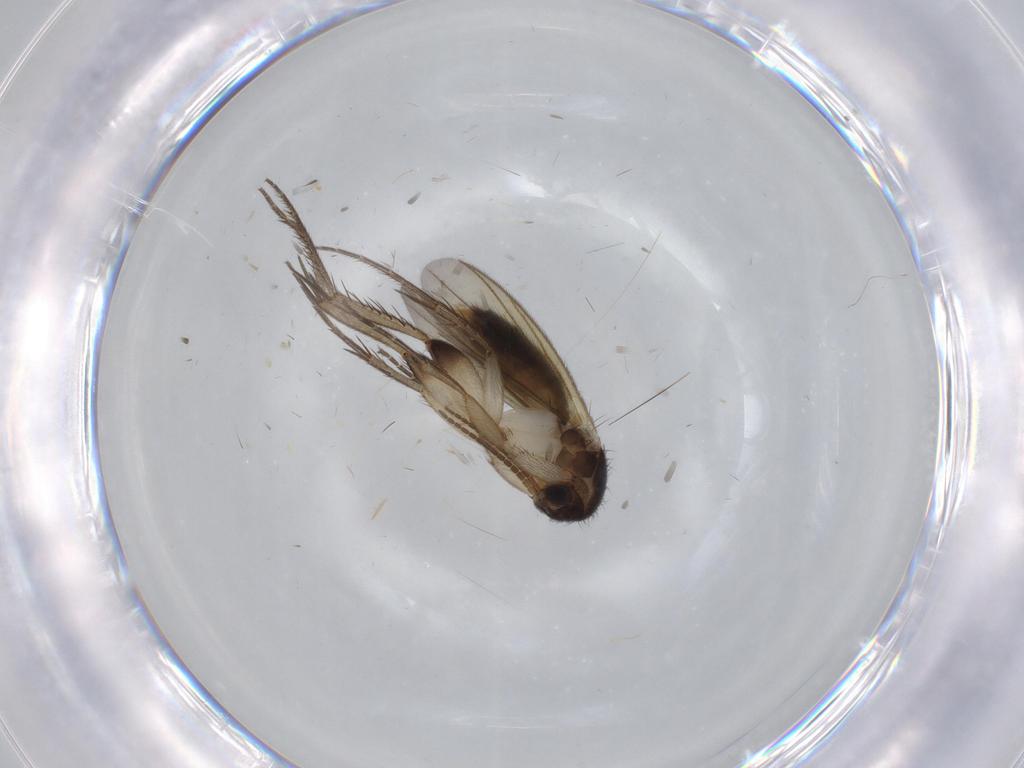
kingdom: Animalia
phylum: Arthropoda
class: Insecta
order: Diptera
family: Mycetophilidae
